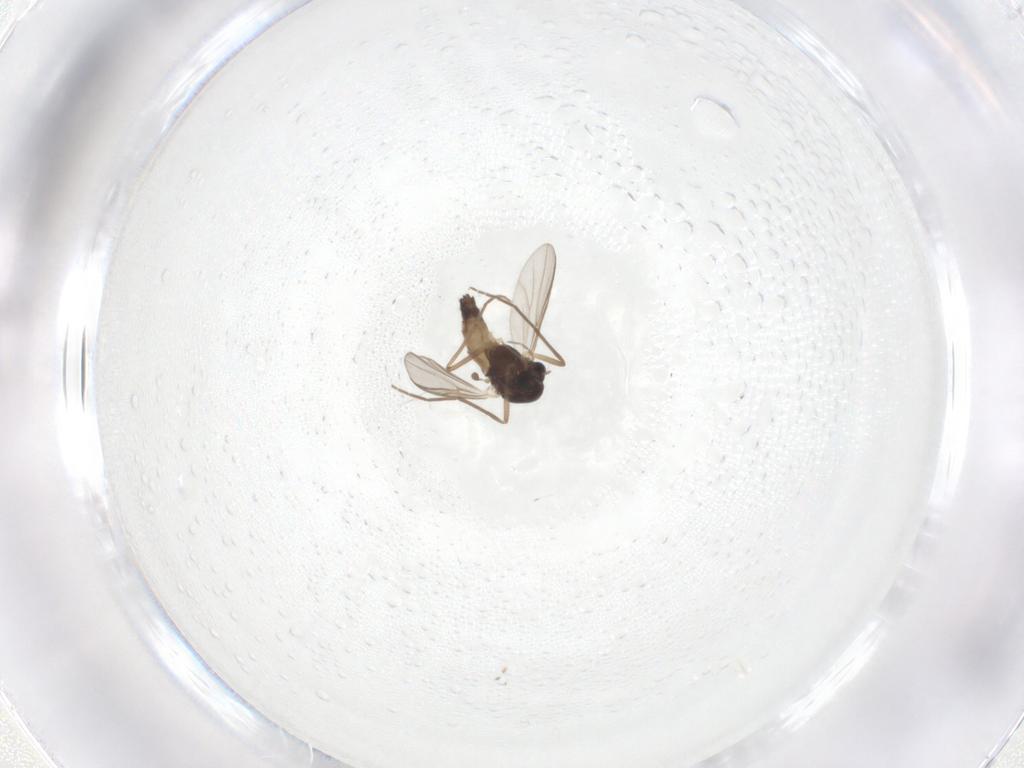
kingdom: Animalia
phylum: Arthropoda
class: Insecta
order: Diptera
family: Chironomidae
